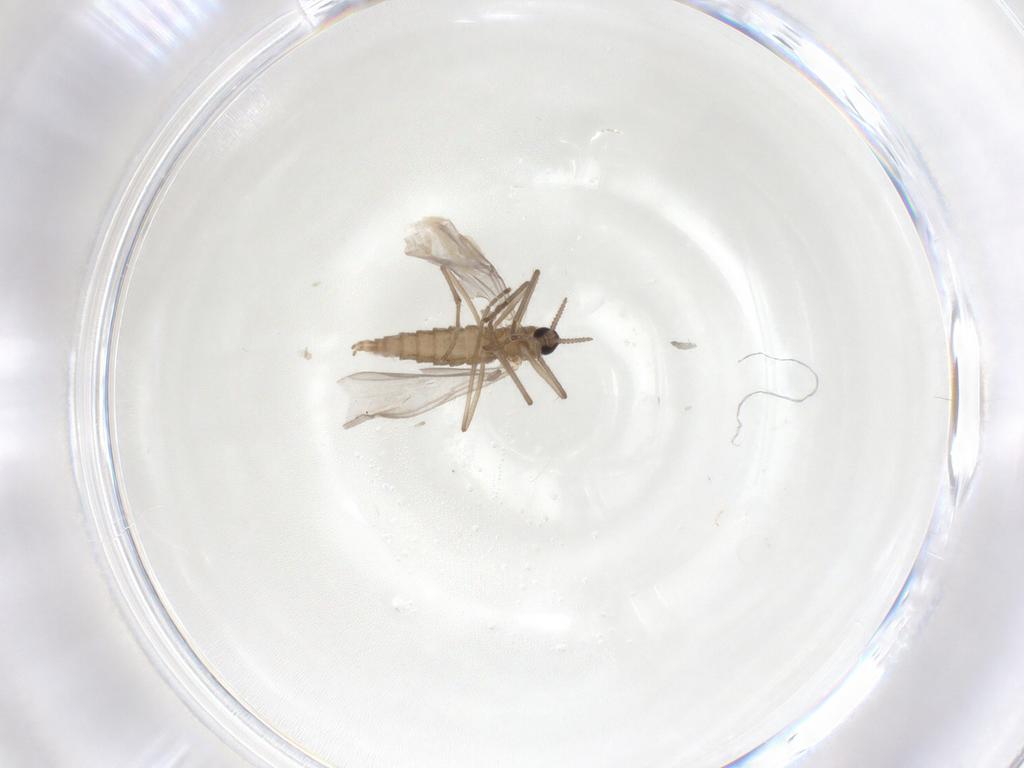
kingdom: Animalia
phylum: Arthropoda
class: Insecta
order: Diptera
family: Cecidomyiidae
